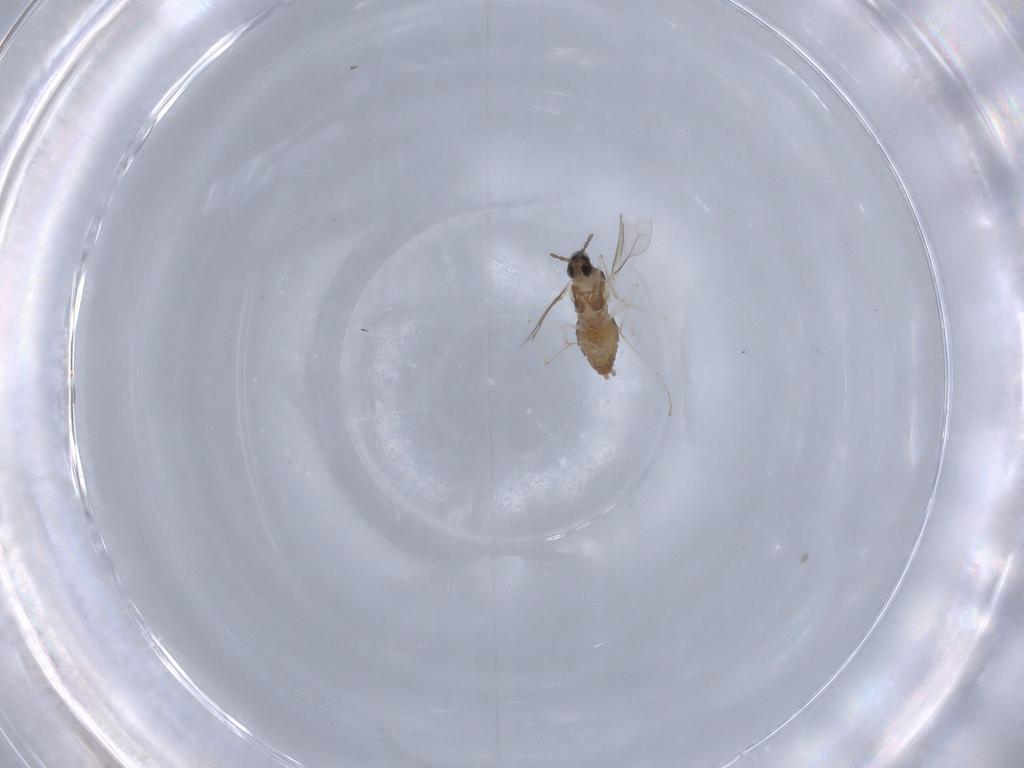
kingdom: Animalia
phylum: Arthropoda
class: Insecta
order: Diptera
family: Cecidomyiidae
